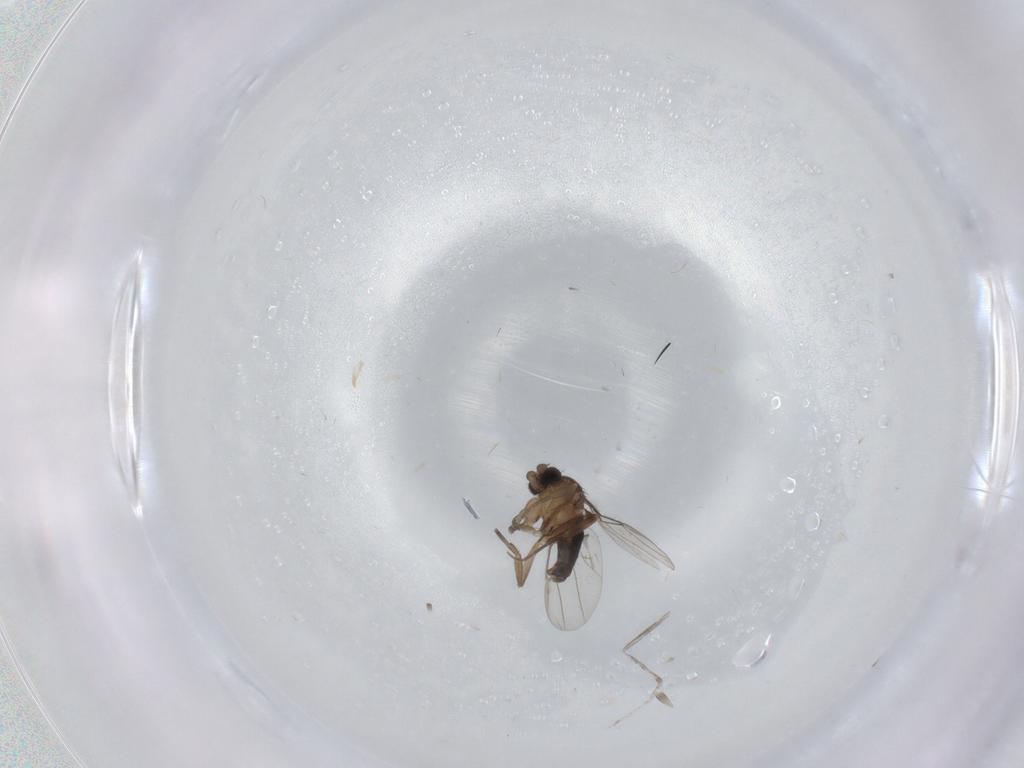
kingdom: Animalia
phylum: Arthropoda
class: Insecta
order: Diptera
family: Phoridae
